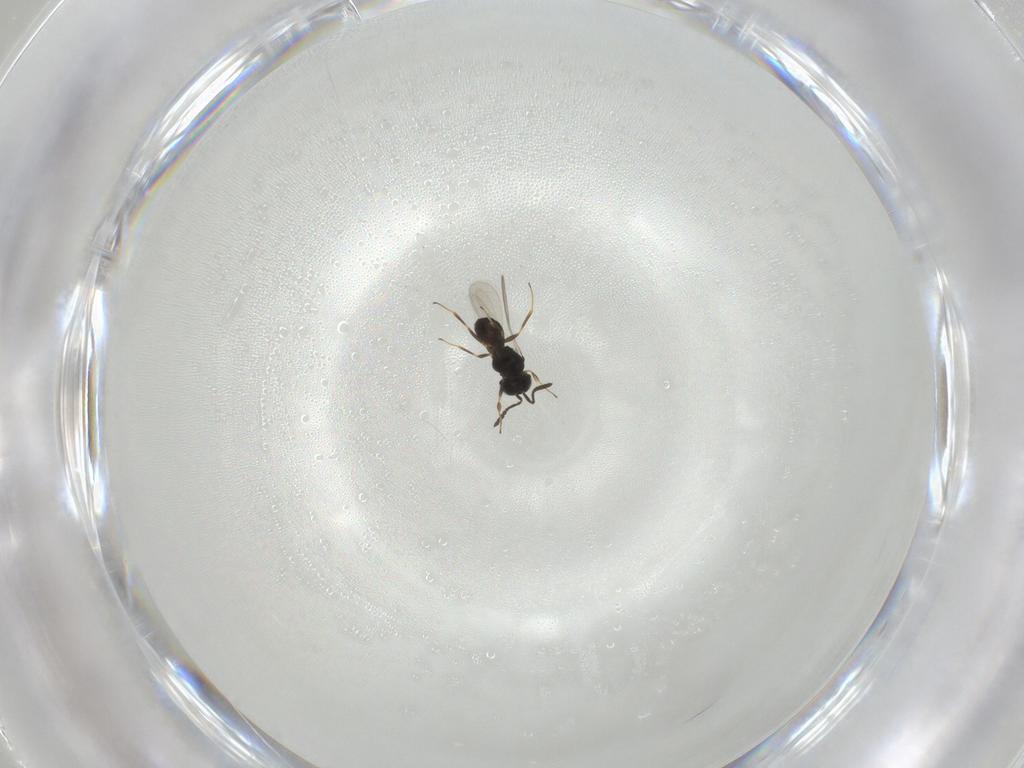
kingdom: Animalia
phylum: Arthropoda
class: Insecta
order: Hymenoptera
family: Scelionidae
